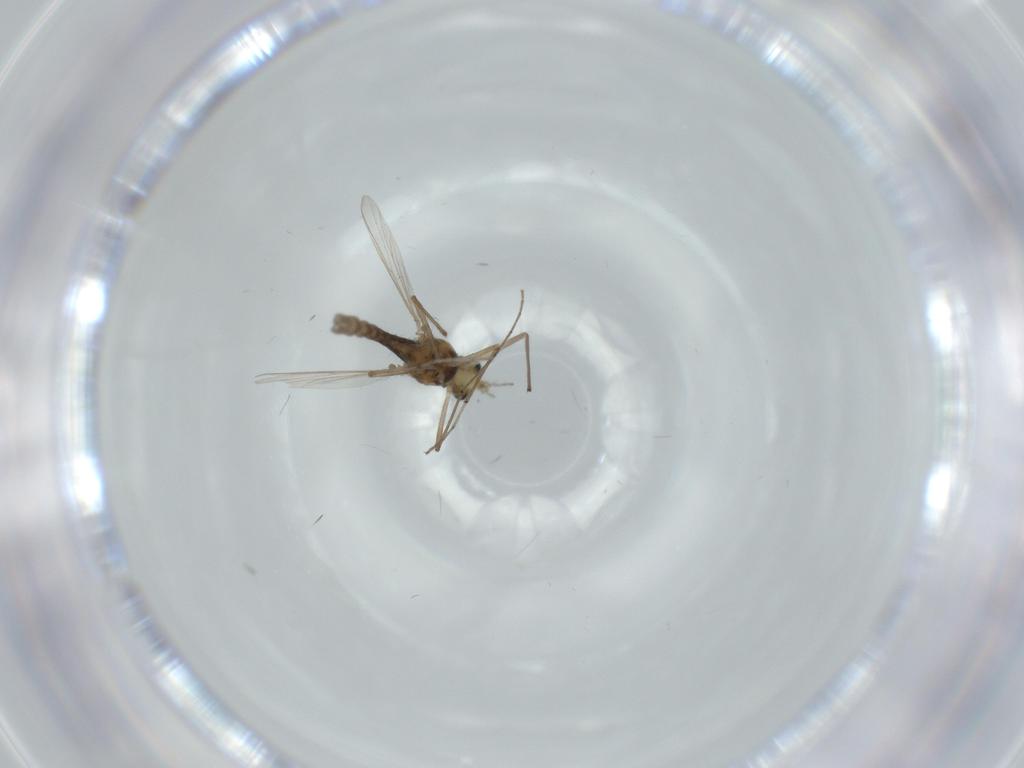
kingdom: Animalia
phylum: Arthropoda
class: Insecta
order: Diptera
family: Chironomidae
